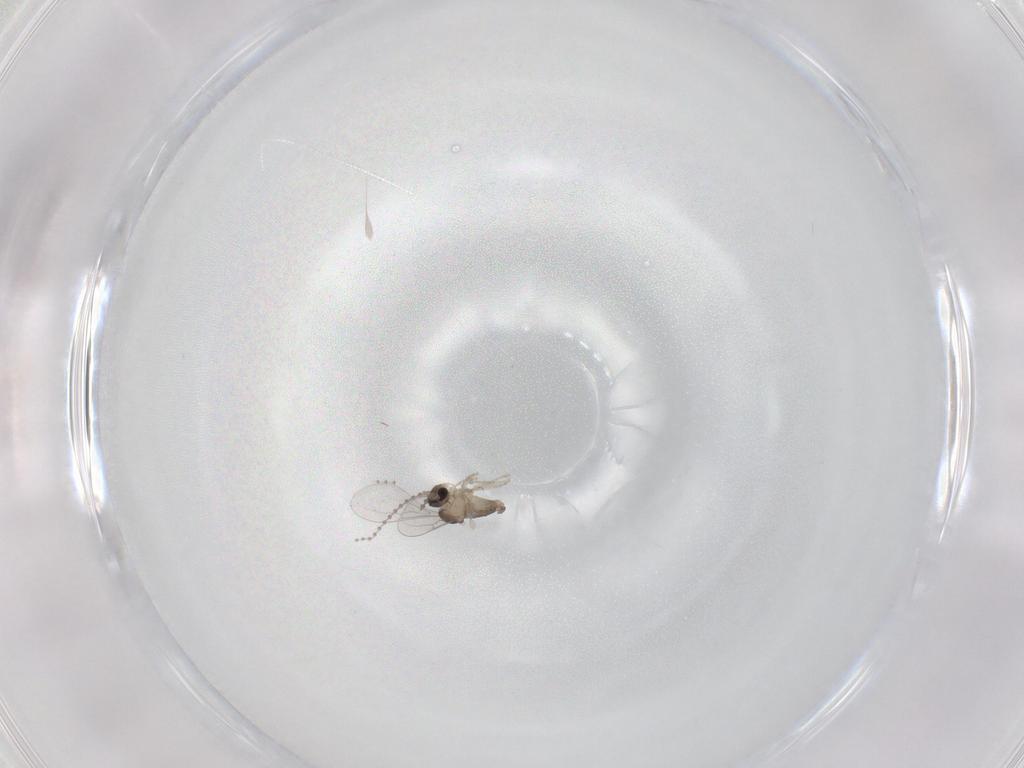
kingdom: Animalia
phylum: Arthropoda
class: Insecta
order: Diptera
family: Cecidomyiidae
